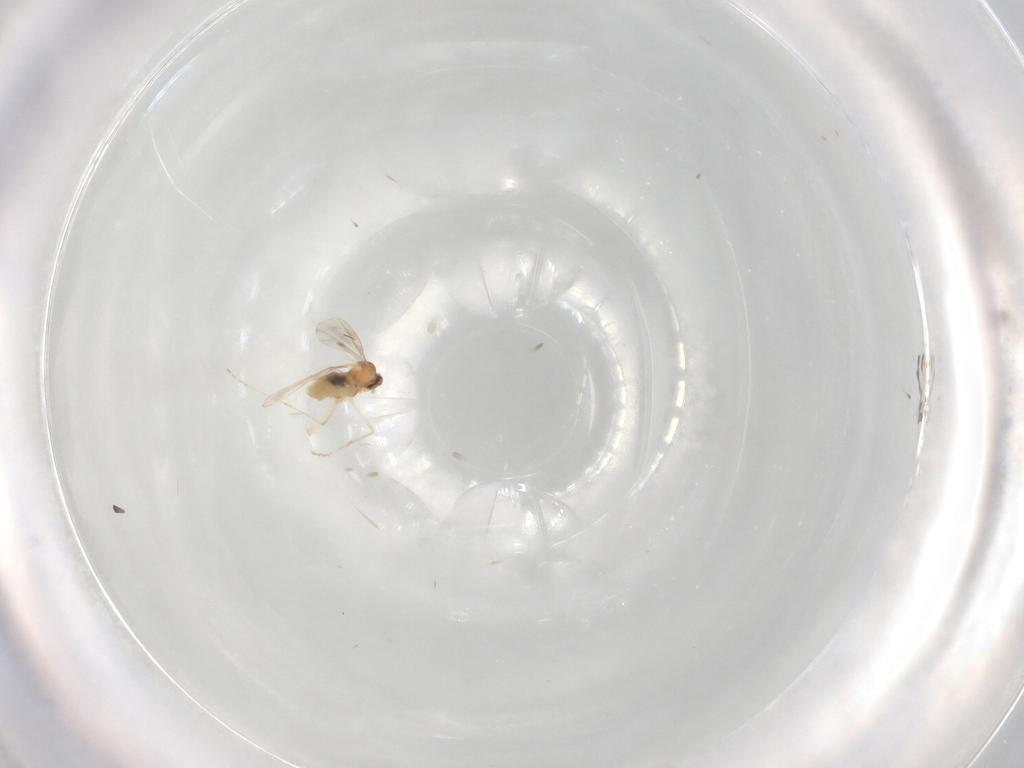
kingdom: Animalia
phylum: Arthropoda
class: Insecta
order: Diptera
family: Cecidomyiidae
